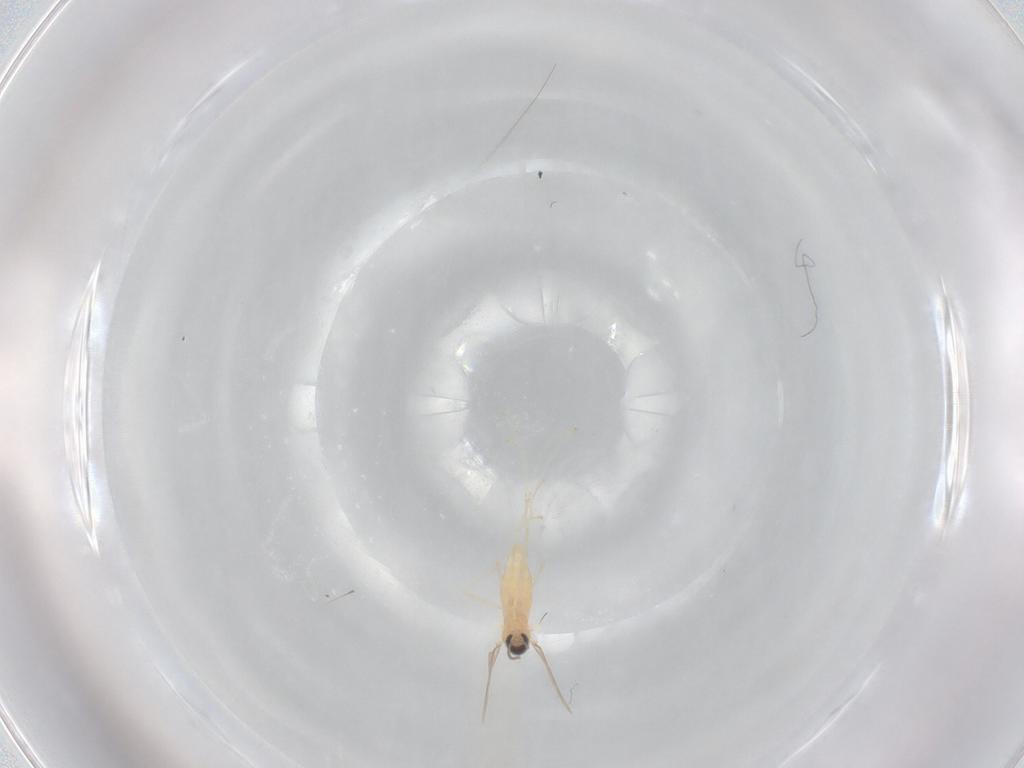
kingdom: Animalia
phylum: Arthropoda
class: Insecta
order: Diptera
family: Cecidomyiidae
